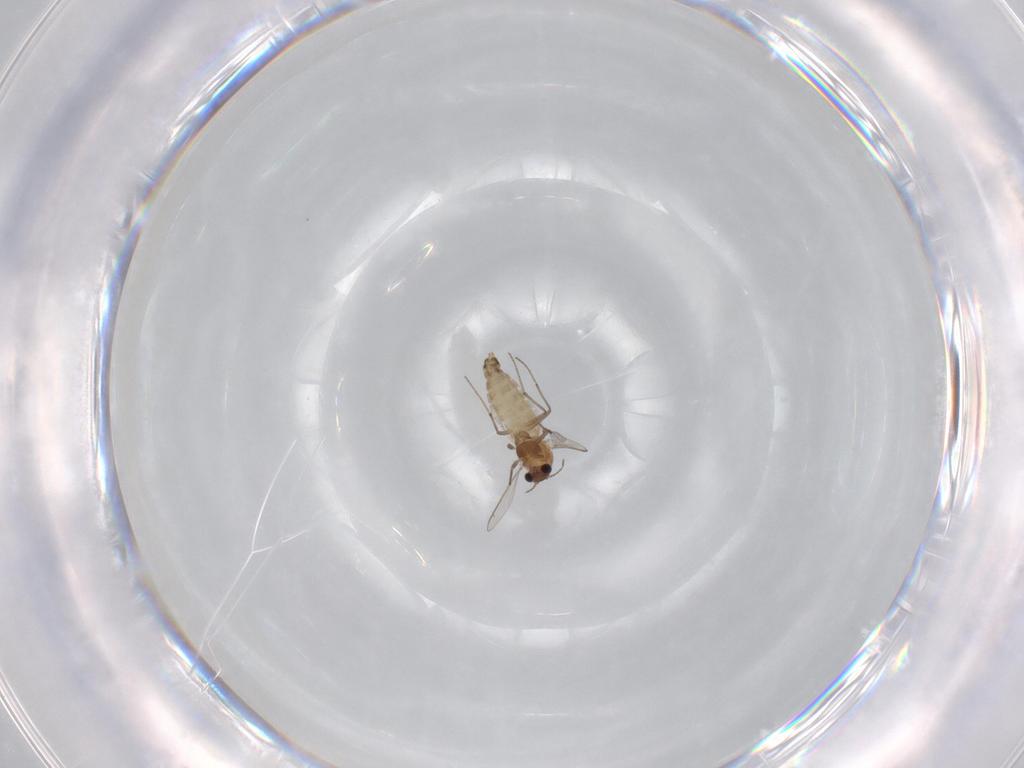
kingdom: Animalia
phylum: Arthropoda
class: Insecta
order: Diptera
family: Chironomidae
